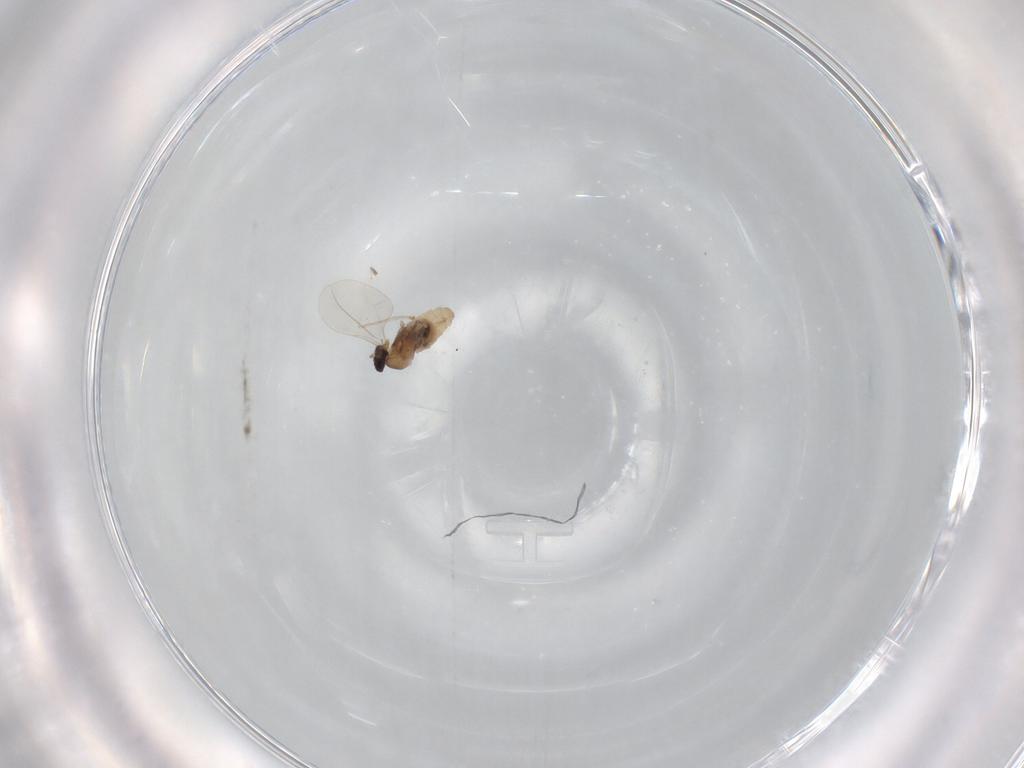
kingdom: Animalia
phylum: Arthropoda
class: Insecta
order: Diptera
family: Cecidomyiidae
